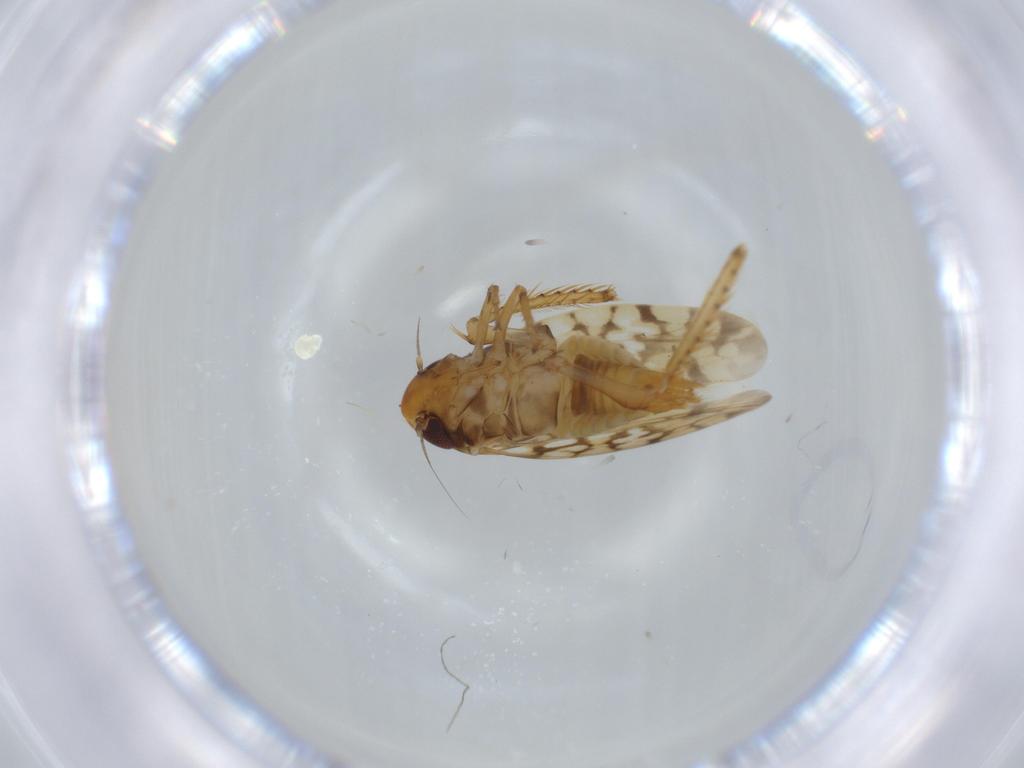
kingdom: Animalia
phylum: Arthropoda
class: Insecta
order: Hemiptera
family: Cicadellidae
